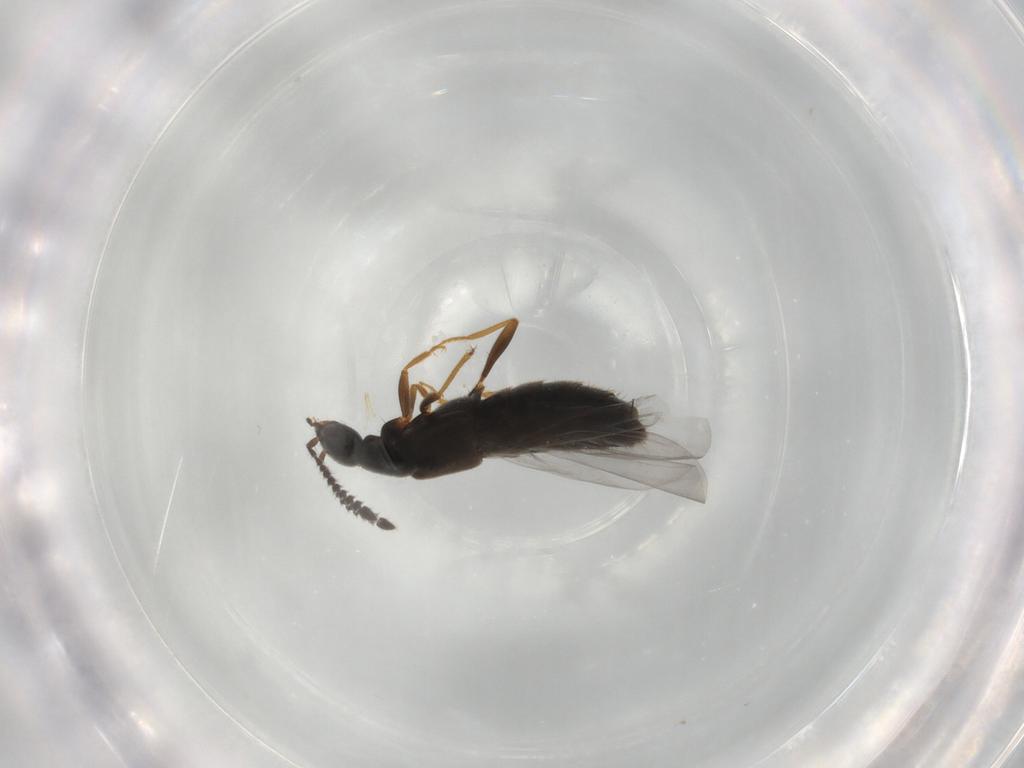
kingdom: Animalia
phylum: Arthropoda
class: Insecta
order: Coleoptera
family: Staphylinidae
